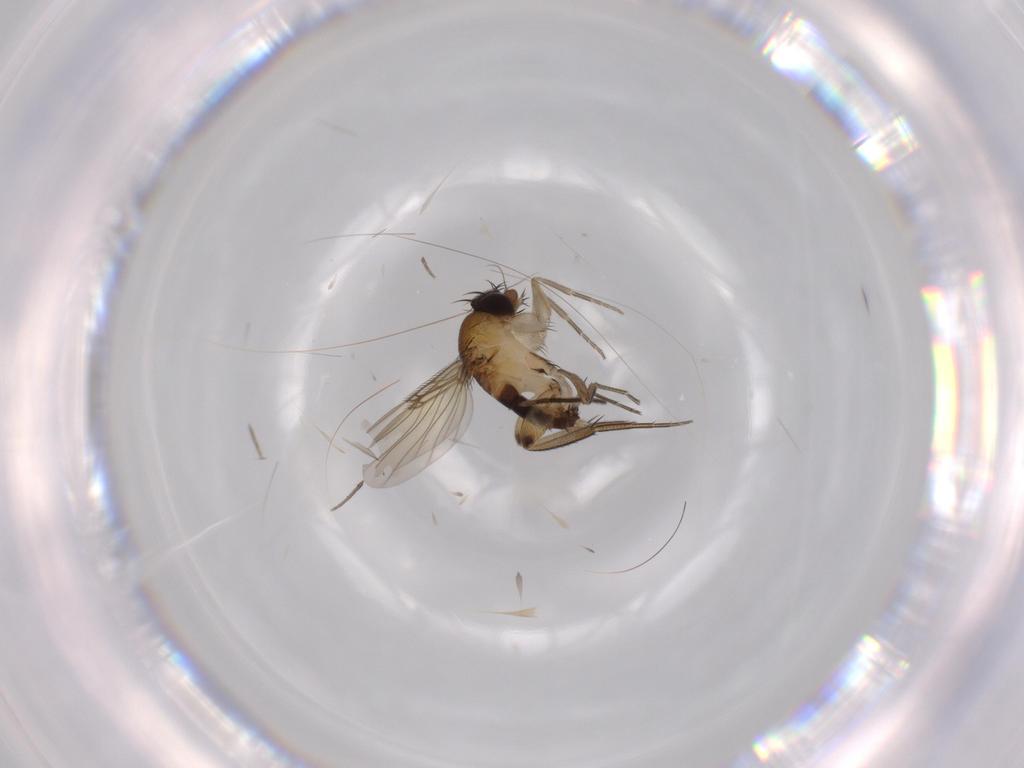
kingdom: Animalia
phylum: Arthropoda
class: Insecta
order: Diptera
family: Phoridae
